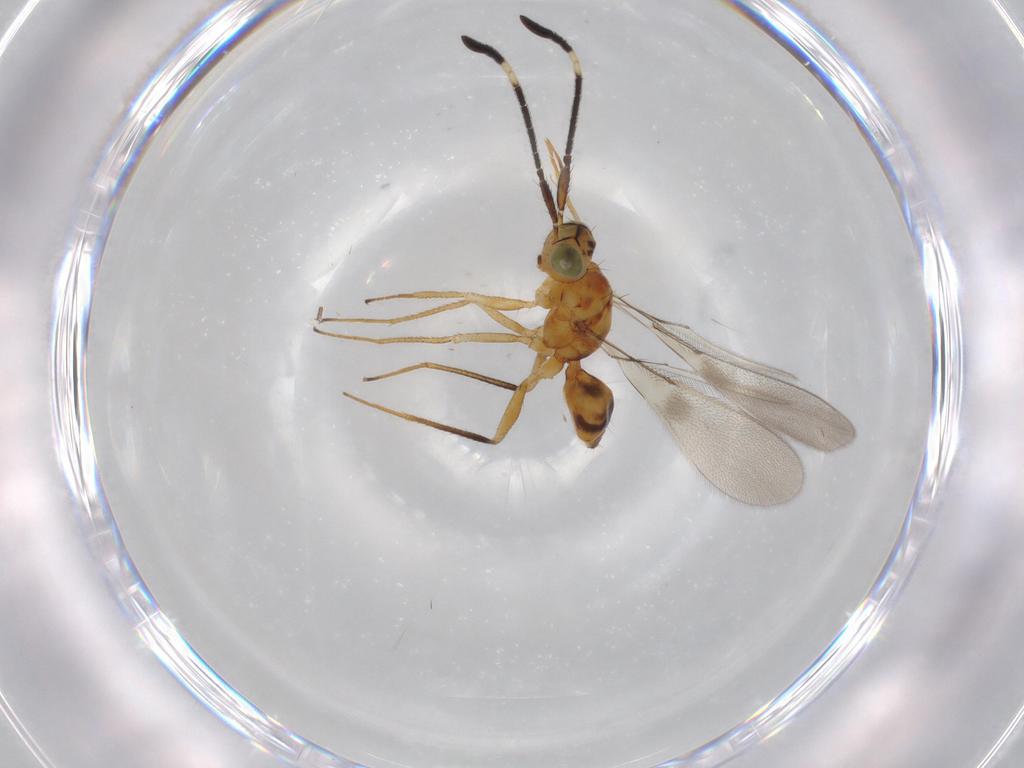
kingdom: Animalia
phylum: Arthropoda
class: Insecta
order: Hymenoptera
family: Mymaridae
